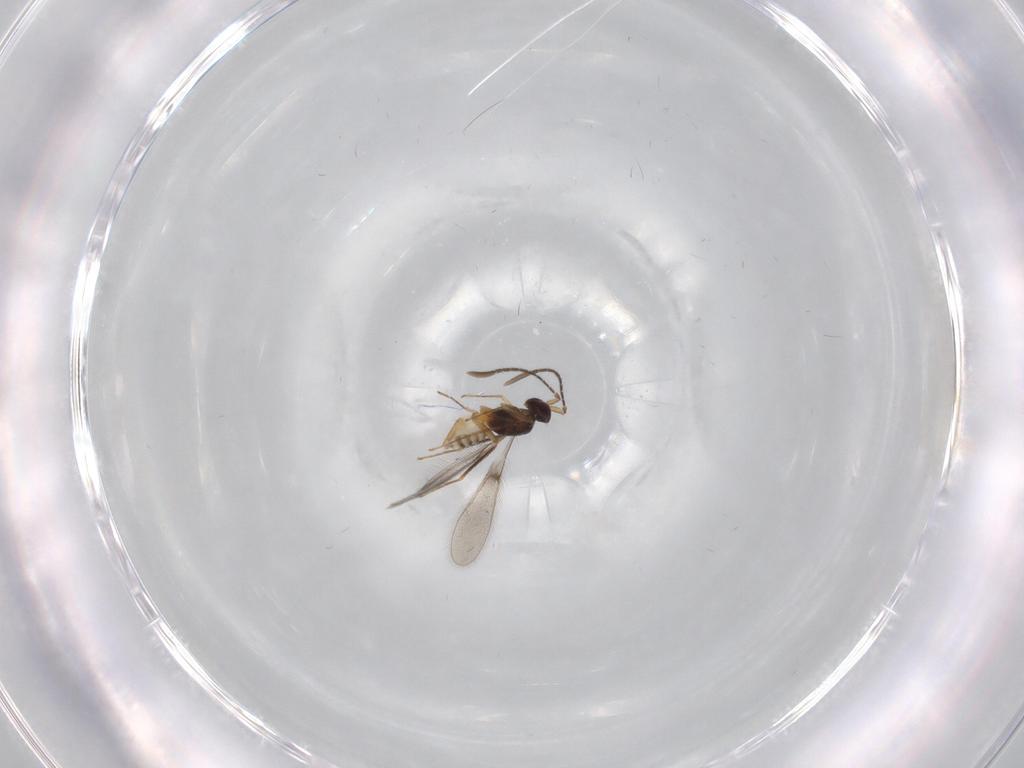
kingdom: Animalia
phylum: Arthropoda
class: Insecta
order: Hymenoptera
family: Mymaridae
